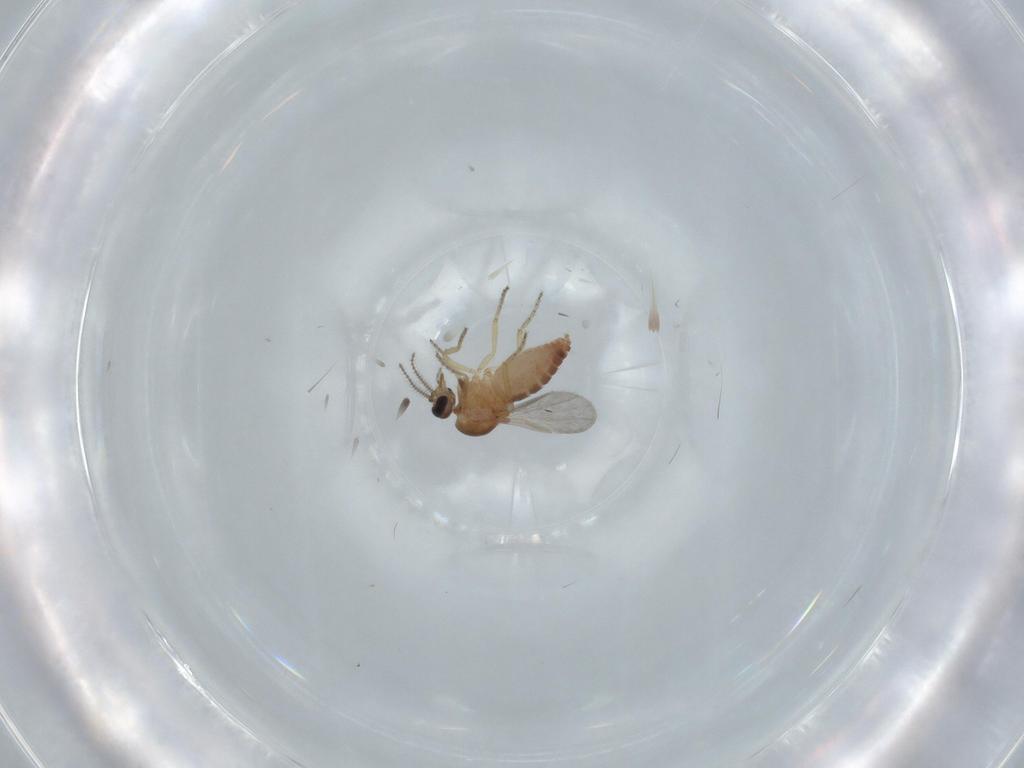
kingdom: Animalia
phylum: Arthropoda
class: Insecta
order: Diptera
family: Ceratopogonidae
